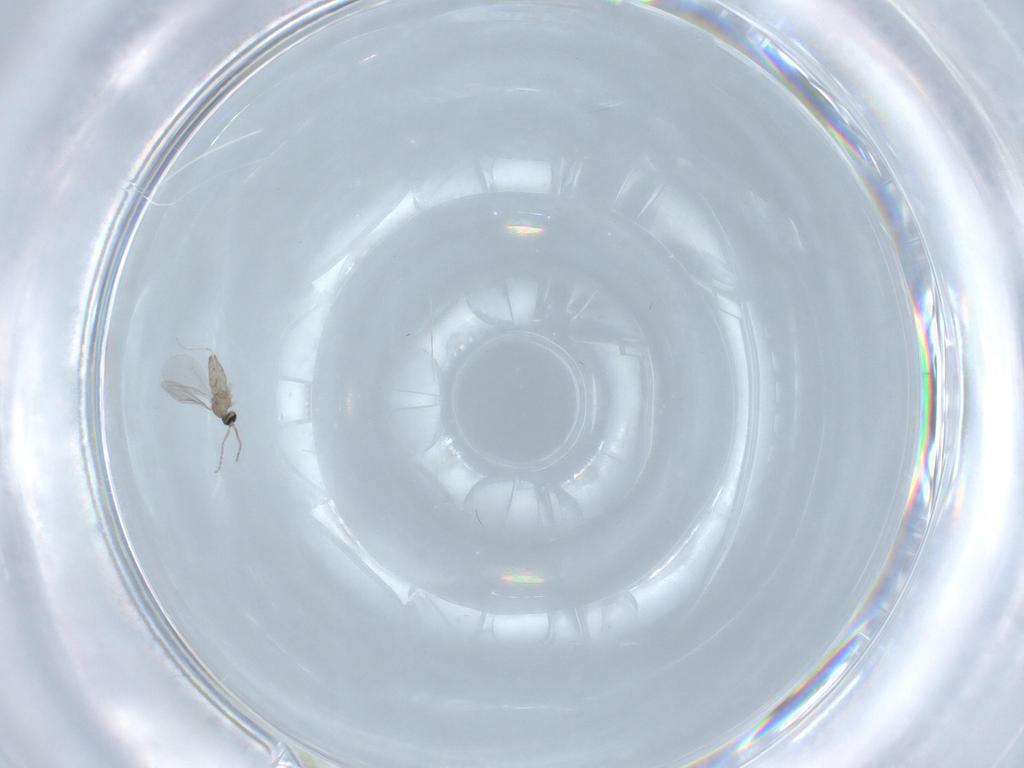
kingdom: Animalia
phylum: Arthropoda
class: Insecta
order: Diptera
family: Cecidomyiidae
